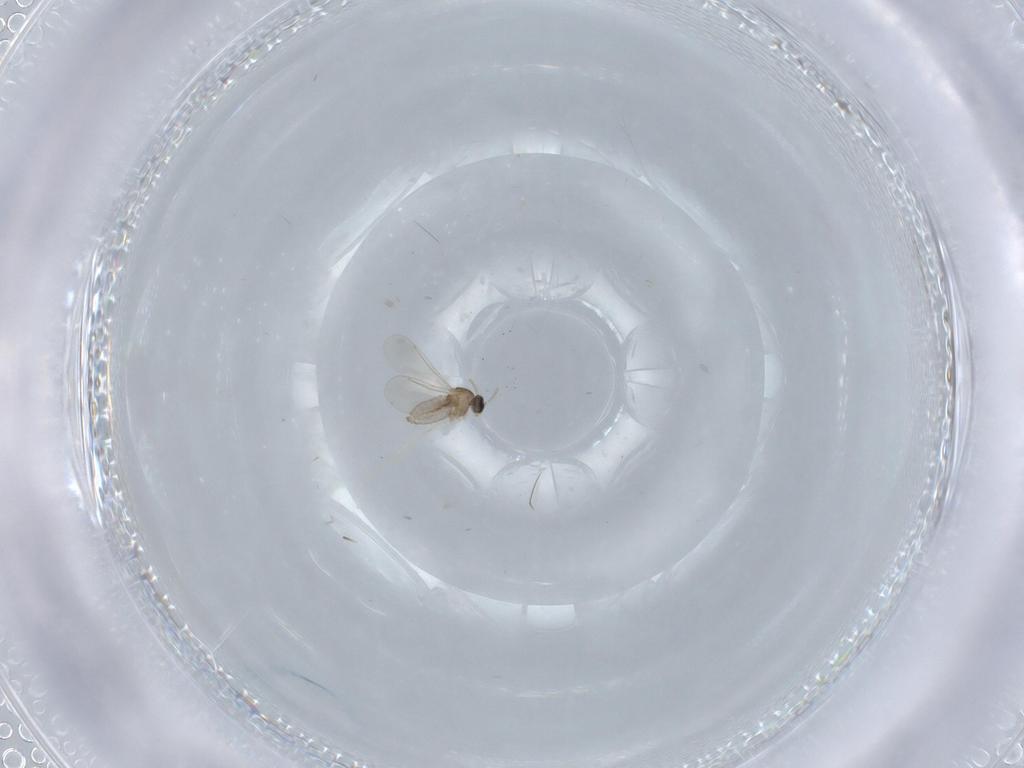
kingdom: Animalia
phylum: Arthropoda
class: Insecta
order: Diptera
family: Cecidomyiidae
